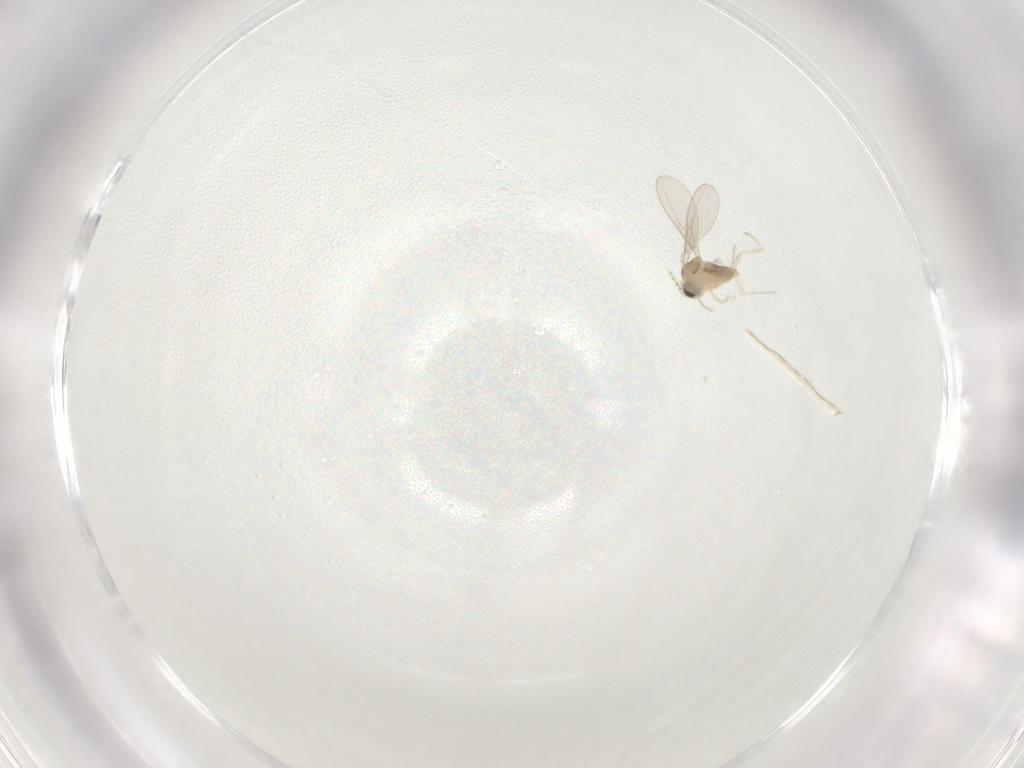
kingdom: Animalia
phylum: Arthropoda
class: Insecta
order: Diptera
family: Cecidomyiidae
